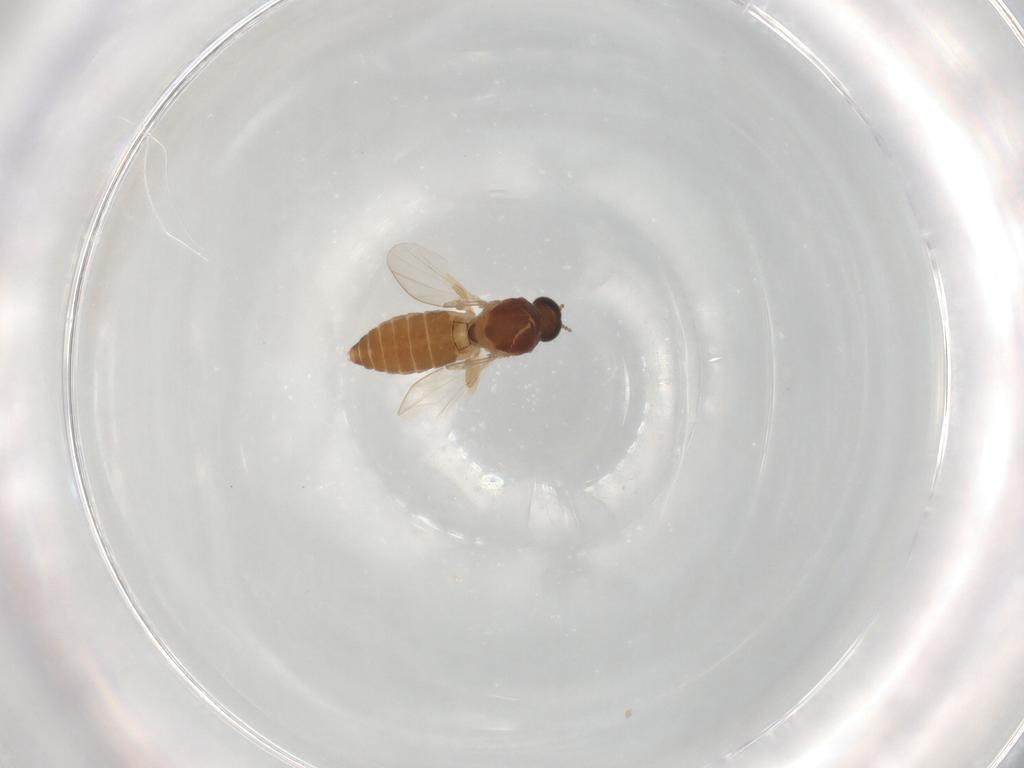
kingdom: Animalia
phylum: Arthropoda
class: Insecta
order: Diptera
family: Ceratopogonidae
